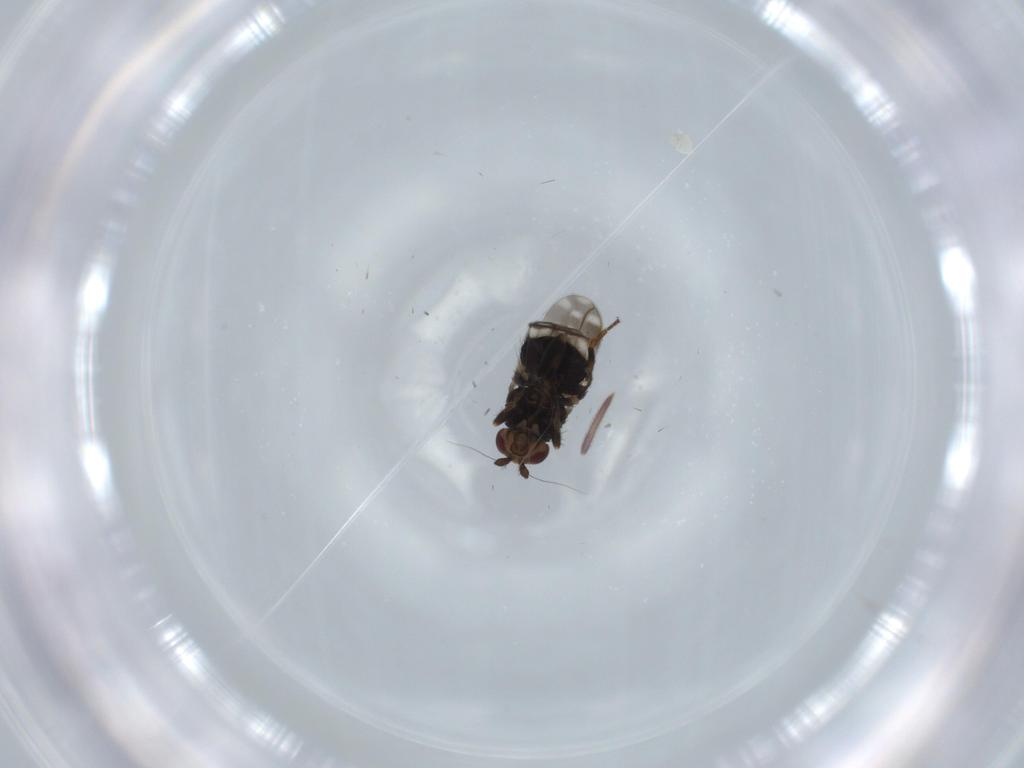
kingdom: Animalia
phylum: Arthropoda
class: Insecta
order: Diptera
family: Sphaeroceridae
